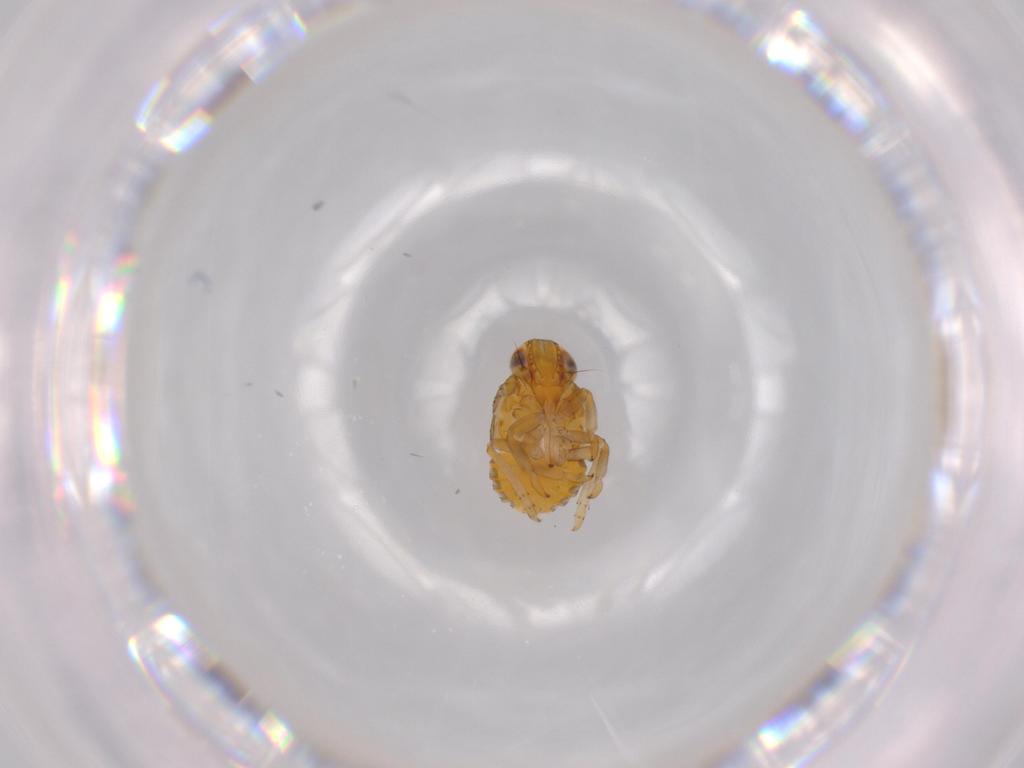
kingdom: Animalia
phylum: Arthropoda
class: Insecta
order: Hemiptera
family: Issidae
